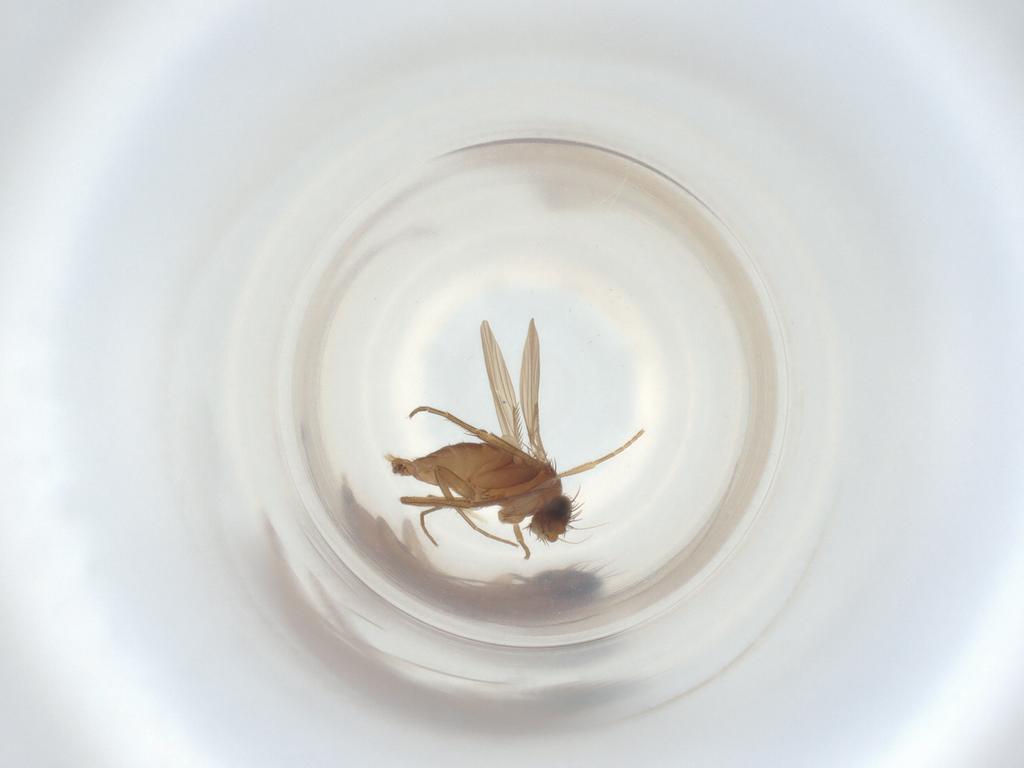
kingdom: Animalia
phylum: Arthropoda
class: Insecta
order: Diptera
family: Phoridae
